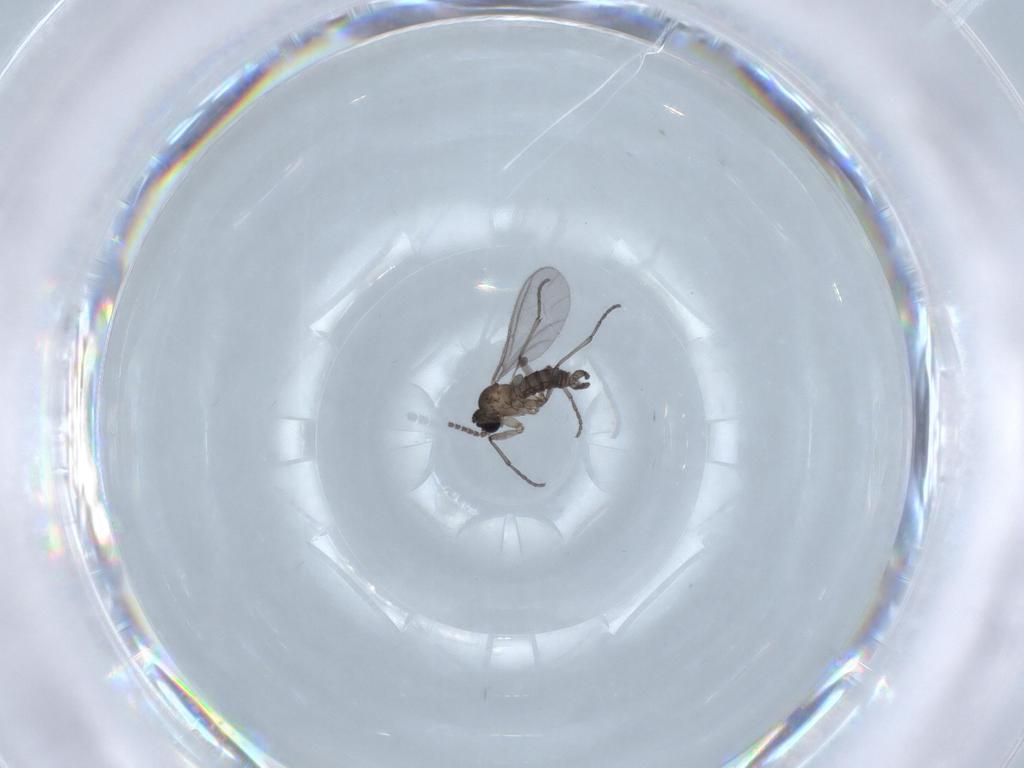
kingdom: Animalia
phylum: Arthropoda
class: Insecta
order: Diptera
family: Sciaridae
